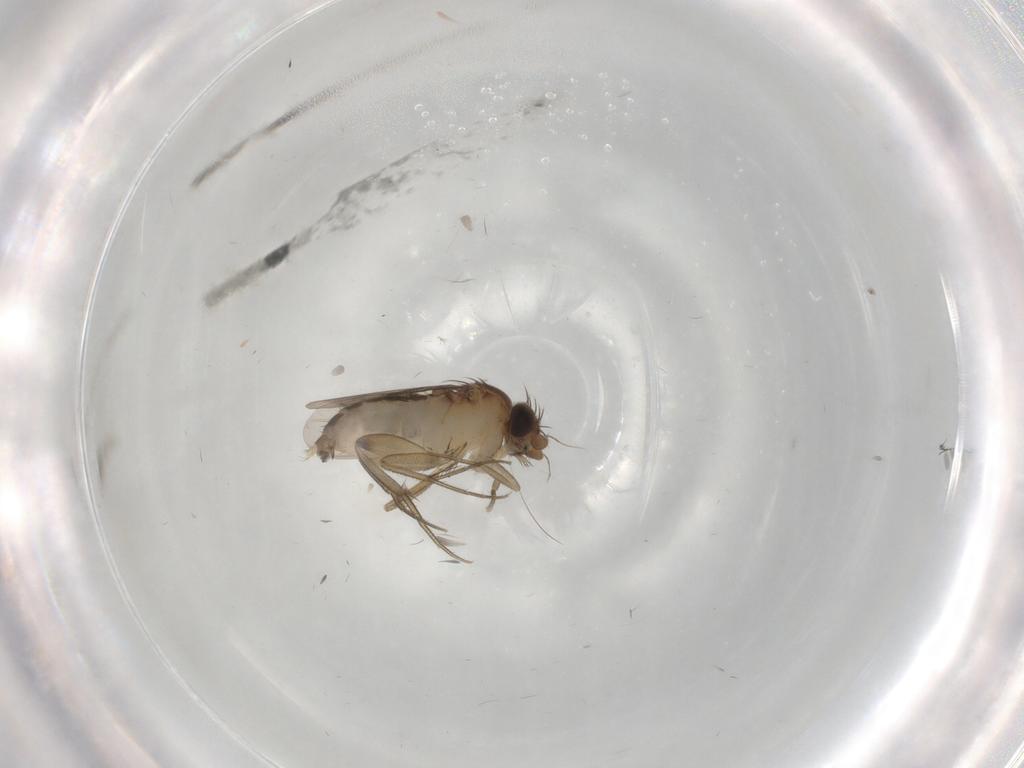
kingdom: Animalia
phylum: Arthropoda
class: Insecta
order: Diptera
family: Phoridae
